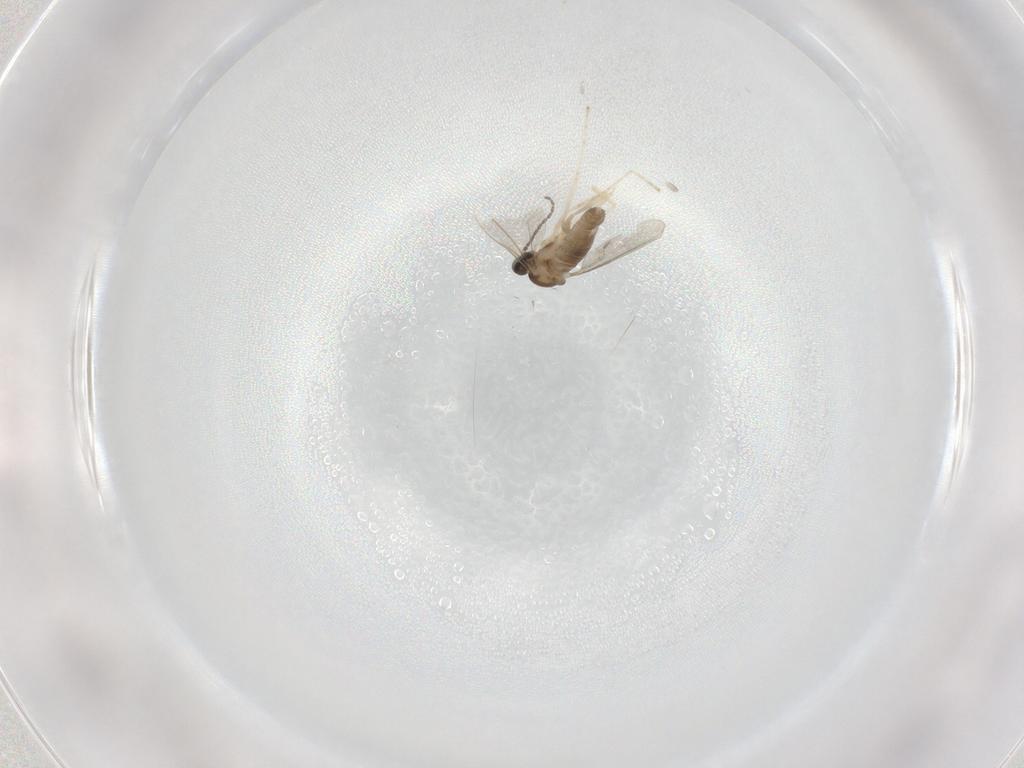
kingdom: Animalia
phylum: Arthropoda
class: Insecta
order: Diptera
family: Cecidomyiidae
